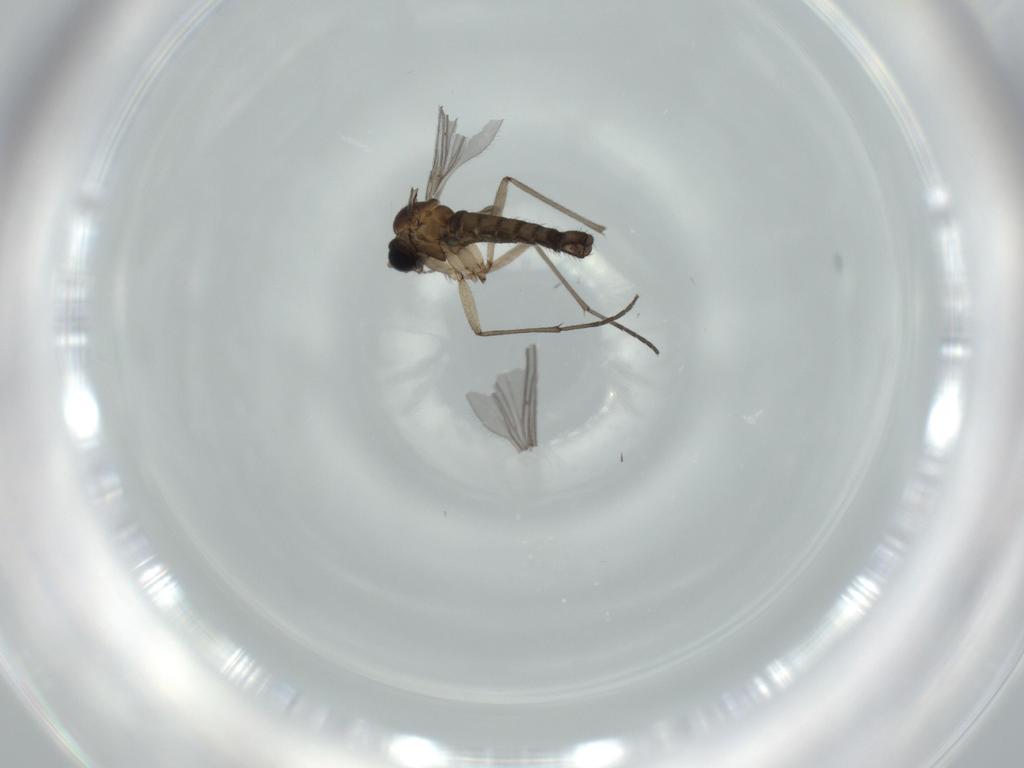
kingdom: Animalia
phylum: Arthropoda
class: Insecta
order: Diptera
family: Sciaridae
